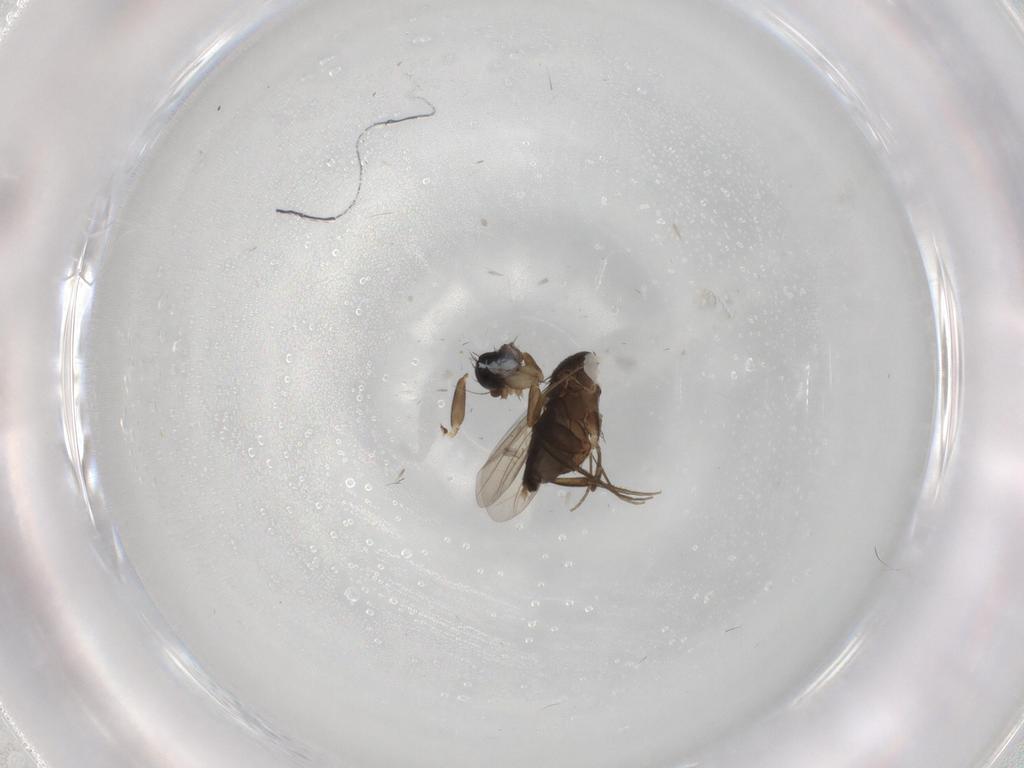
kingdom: Animalia
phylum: Arthropoda
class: Insecta
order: Diptera
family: Phoridae
